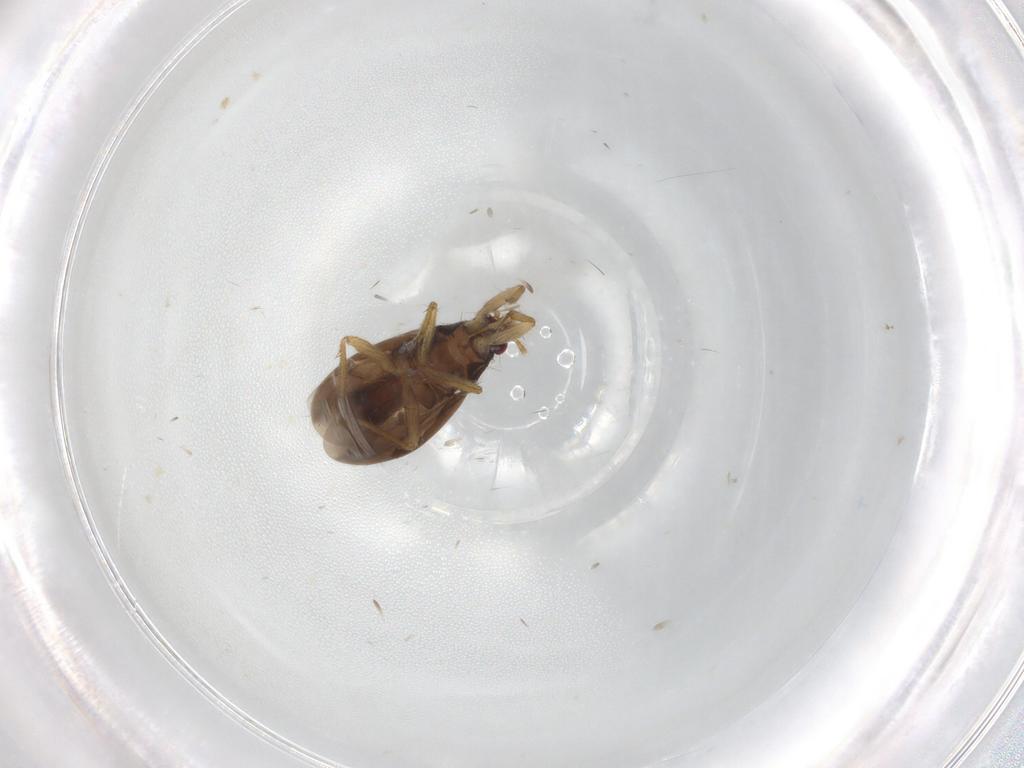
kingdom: Animalia
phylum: Arthropoda
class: Insecta
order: Hemiptera
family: Ceratocombidae
